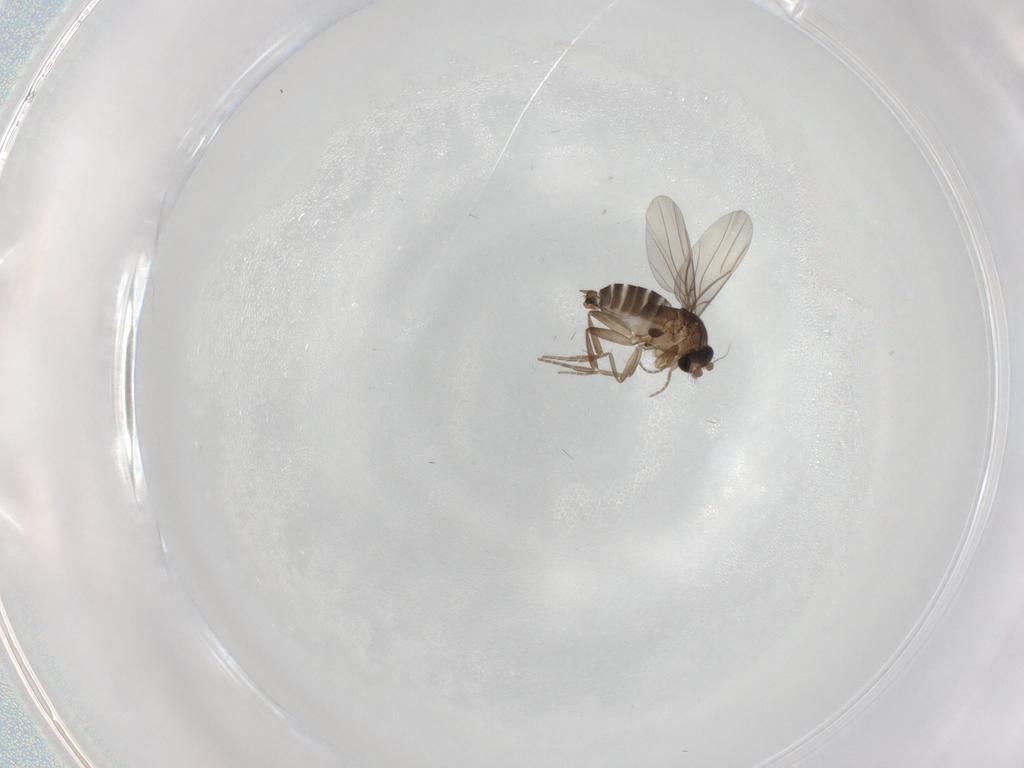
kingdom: Animalia
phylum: Arthropoda
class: Insecta
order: Diptera
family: Phoridae
